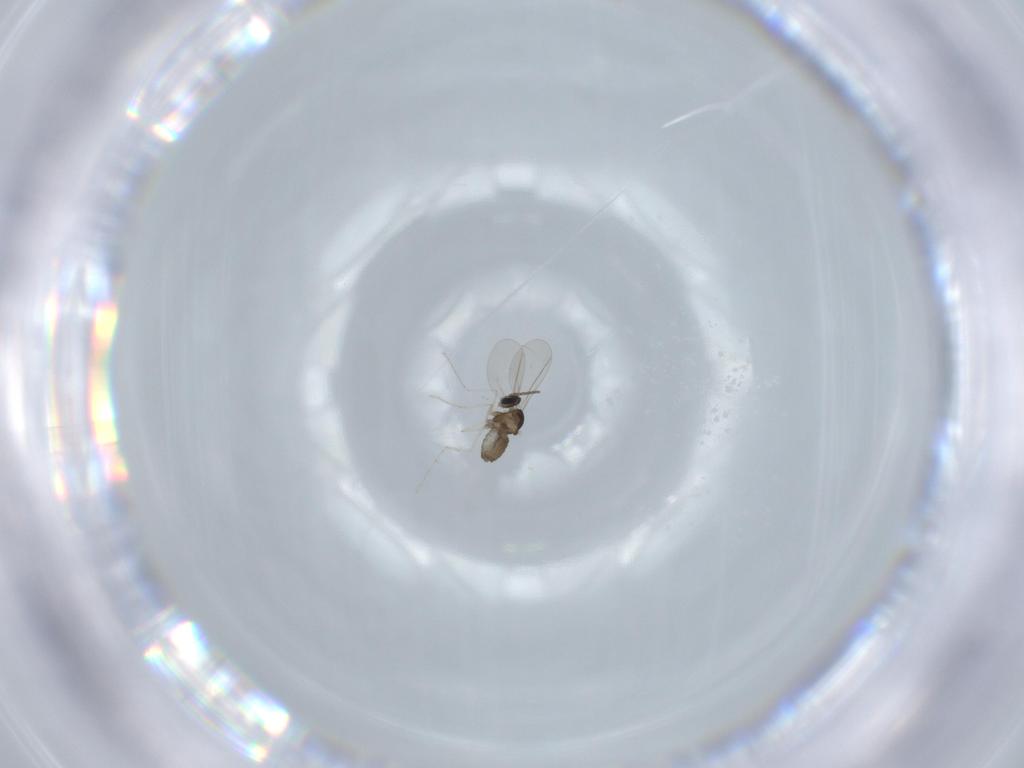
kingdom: Animalia
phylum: Arthropoda
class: Insecta
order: Diptera
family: Cecidomyiidae
